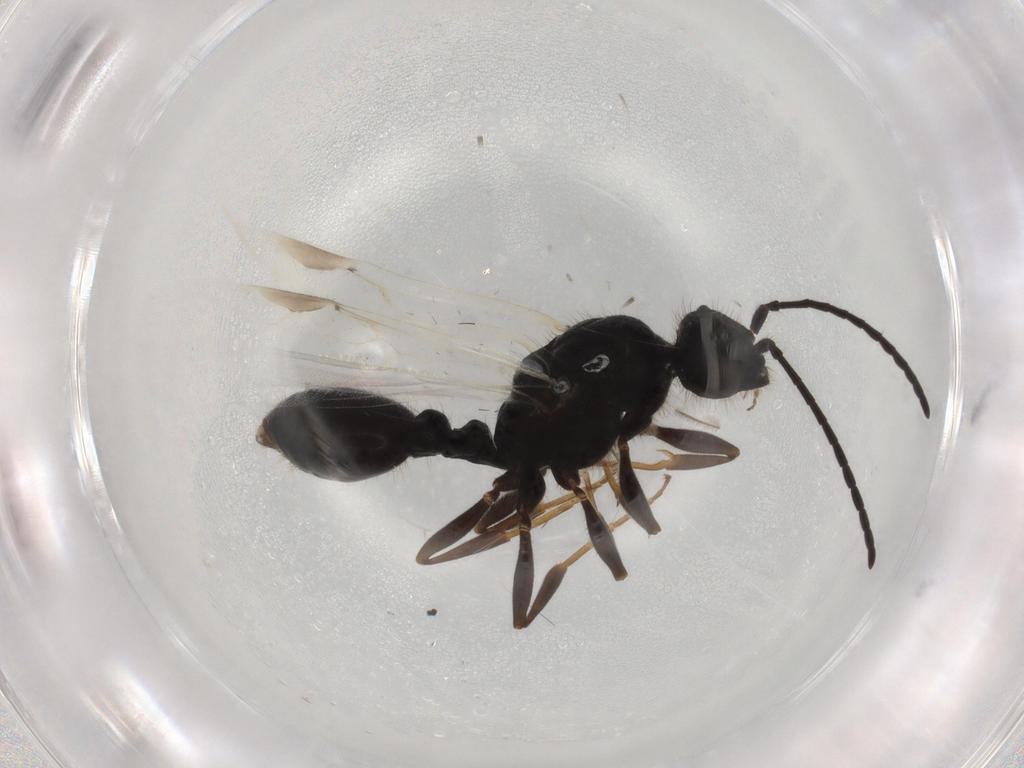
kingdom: Animalia
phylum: Arthropoda
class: Insecta
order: Hymenoptera
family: Formicidae
